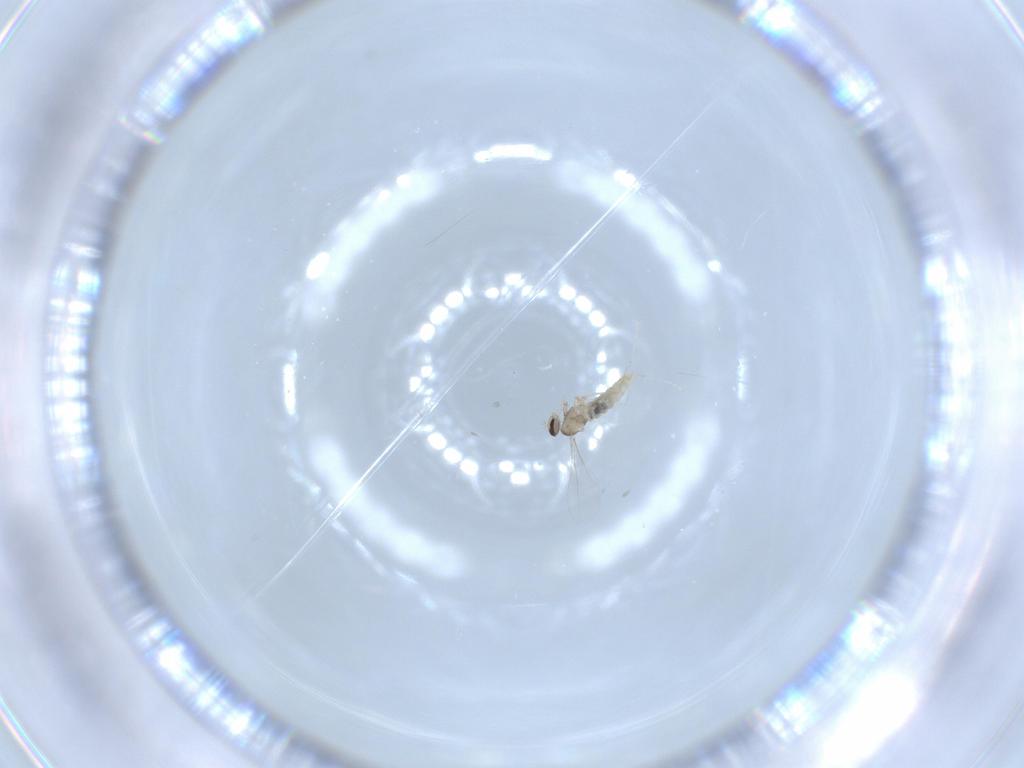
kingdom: Animalia
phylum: Arthropoda
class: Insecta
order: Diptera
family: Cecidomyiidae
